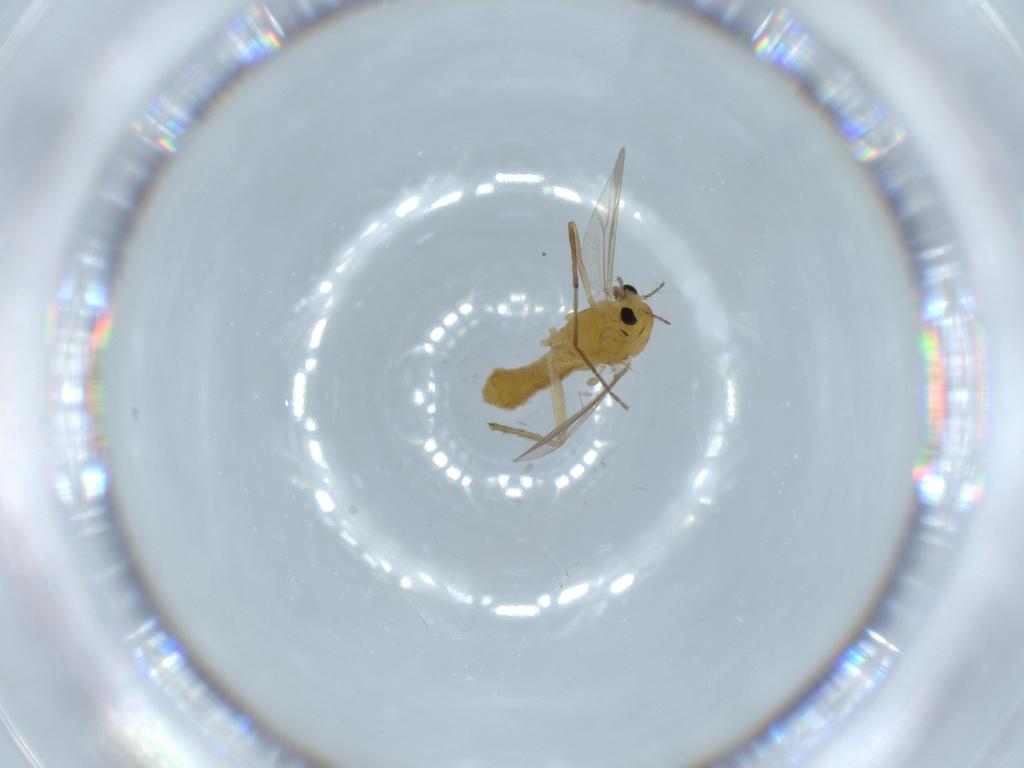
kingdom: Animalia
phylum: Arthropoda
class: Insecta
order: Diptera
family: Chironomidae
